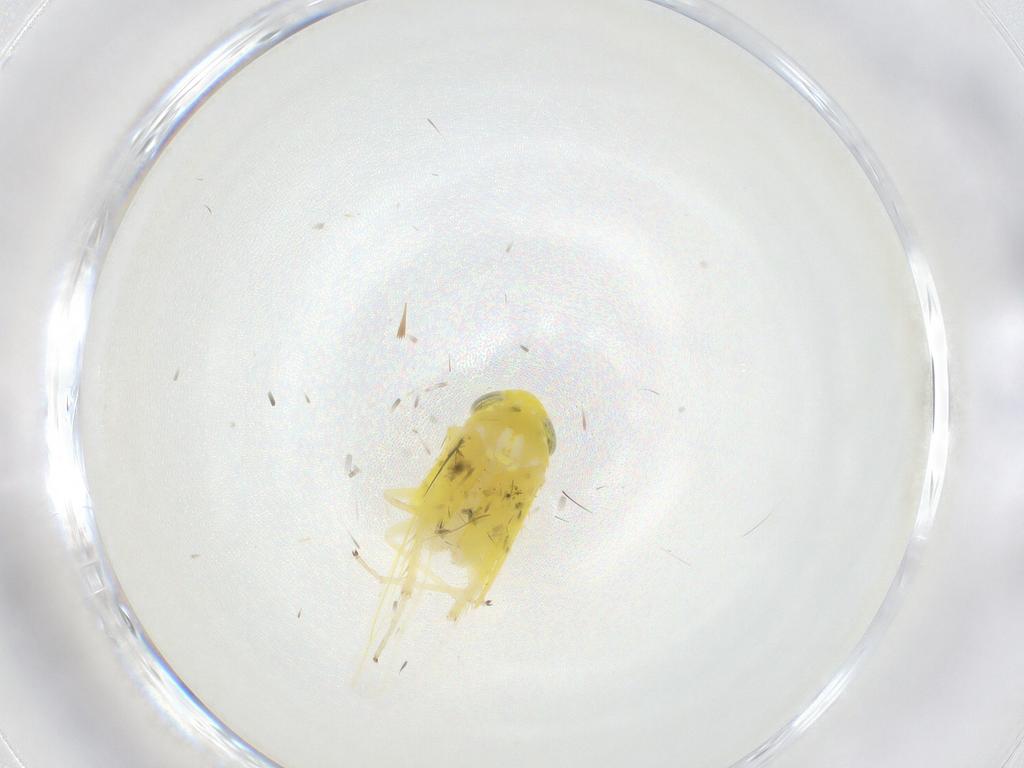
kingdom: Animalia
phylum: Arthropoda
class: Insecta
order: Hemiptera
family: Cicadellidae
